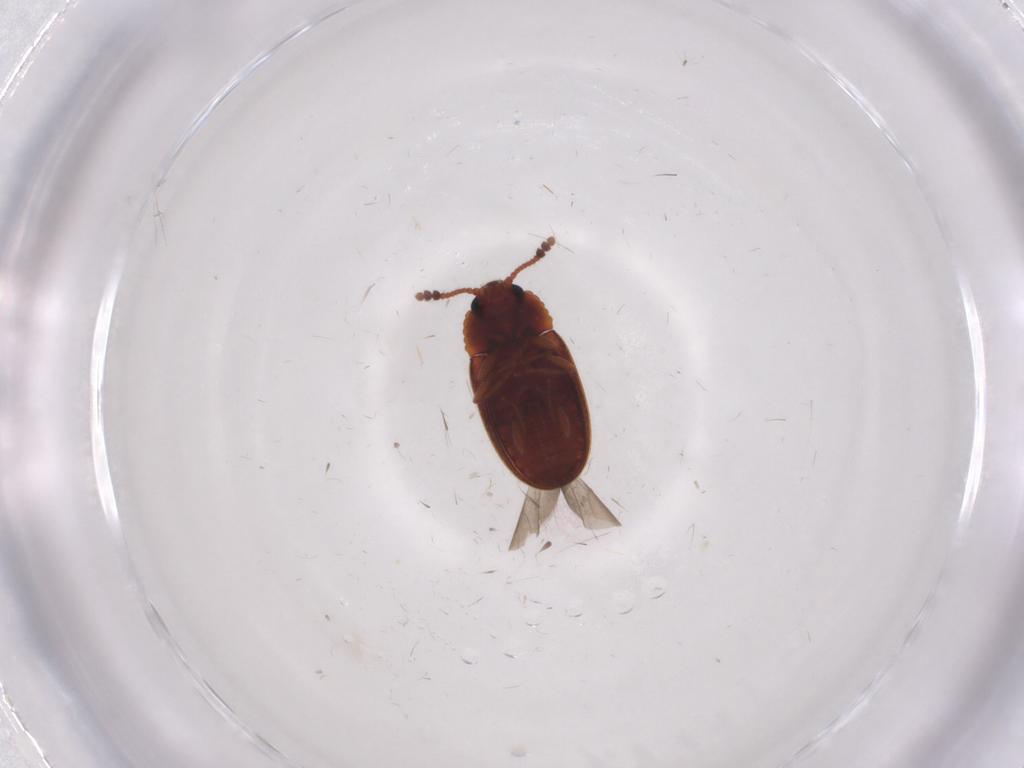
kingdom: Animalia
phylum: Arthropoda
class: Insecta
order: Coleoptera
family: Erotylidae
